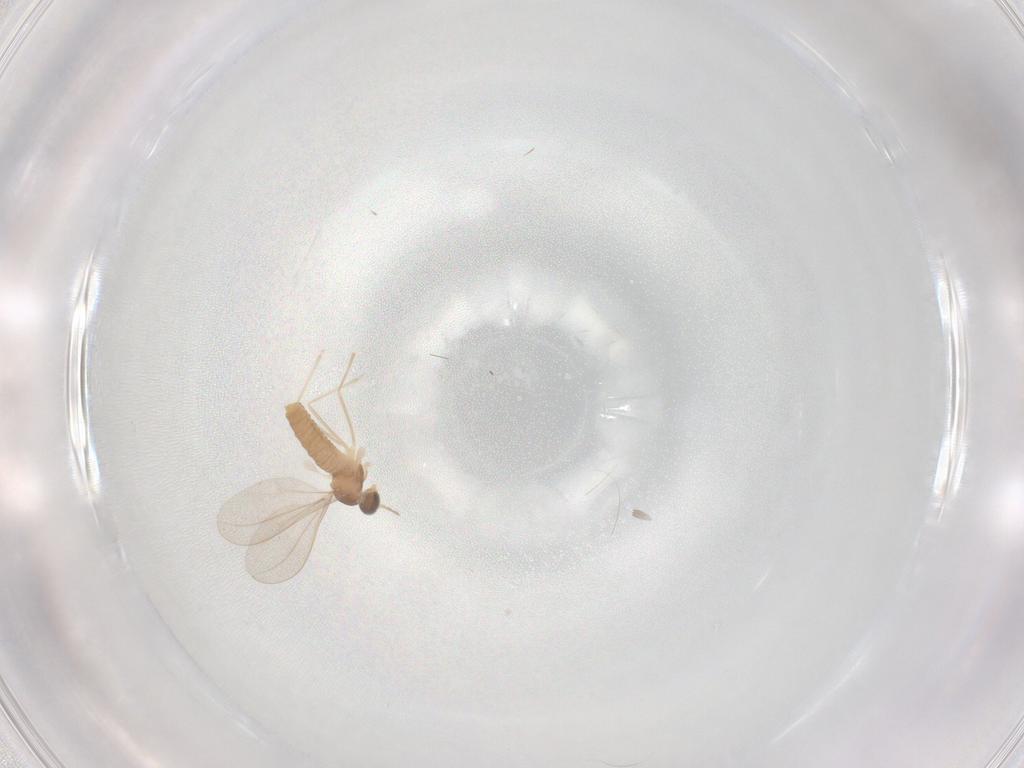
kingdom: Animalia
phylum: Arthropoda
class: Insecta
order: Diptera
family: Cecidomyiidae
